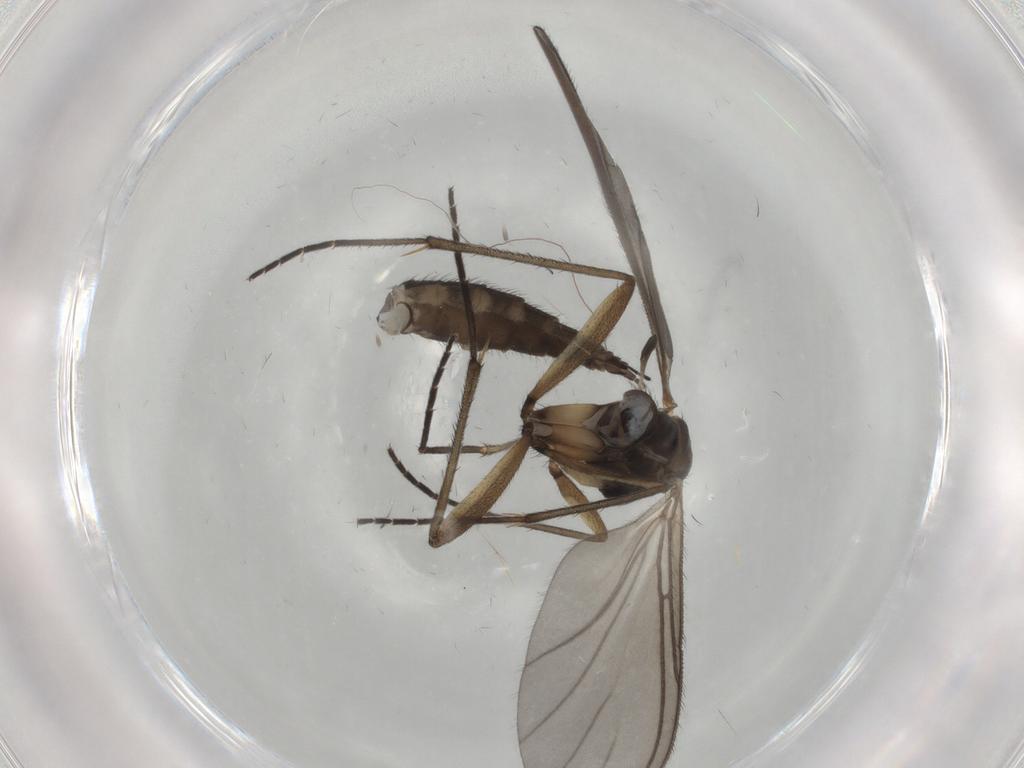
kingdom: Animalia
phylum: Arthropoda
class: Insecta
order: Diptera
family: Sciaridae
